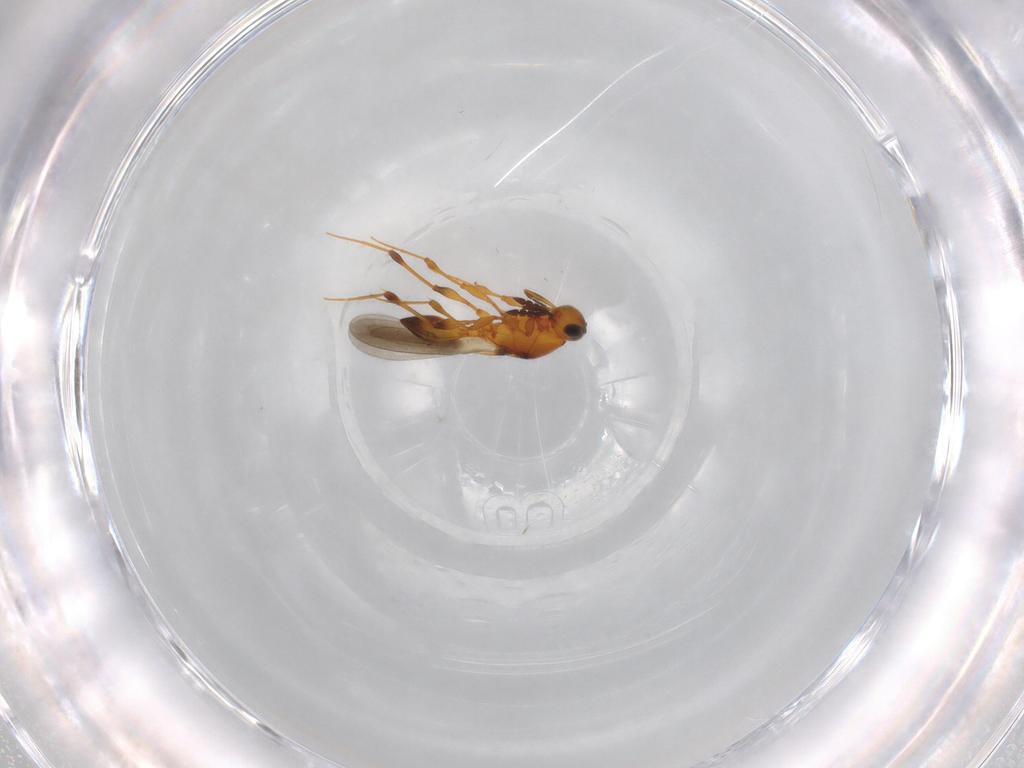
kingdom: Animalia
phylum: Arthropoda
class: Insecta
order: Hymenoptera
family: Platygastridae
